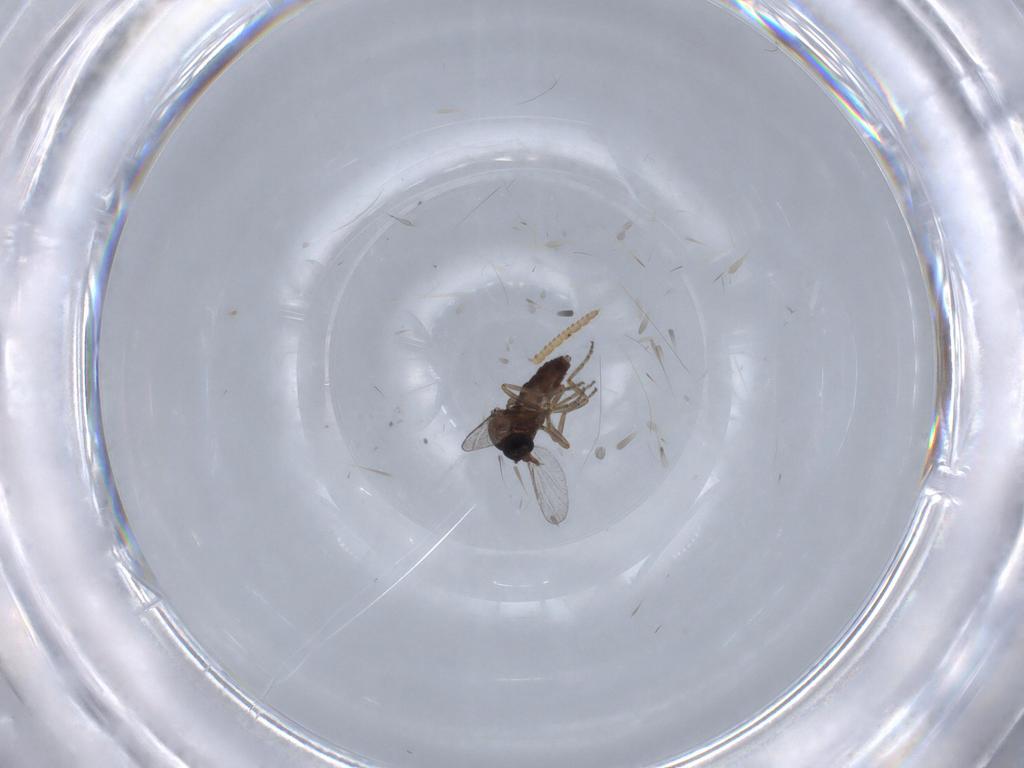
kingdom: Animalia
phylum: Arthropoda
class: Insecta
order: Diptera
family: Ceratopogonidae
